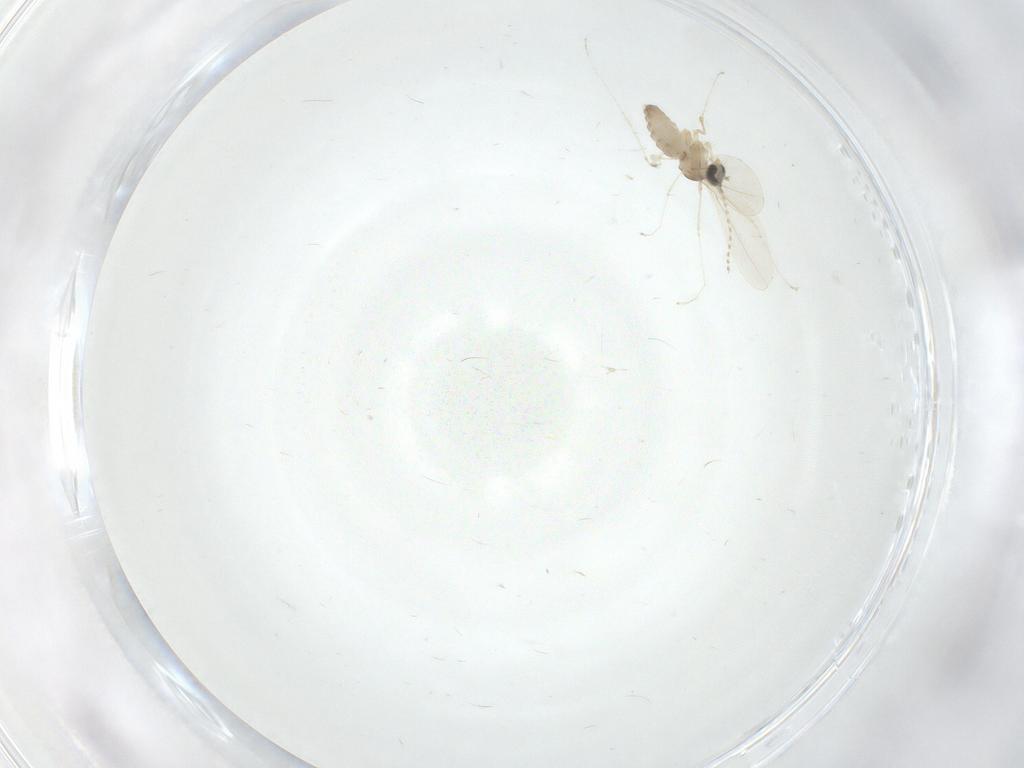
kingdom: Animalia
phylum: Arthropoda
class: Insecta
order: Diptera
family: Cecidomyiidae
